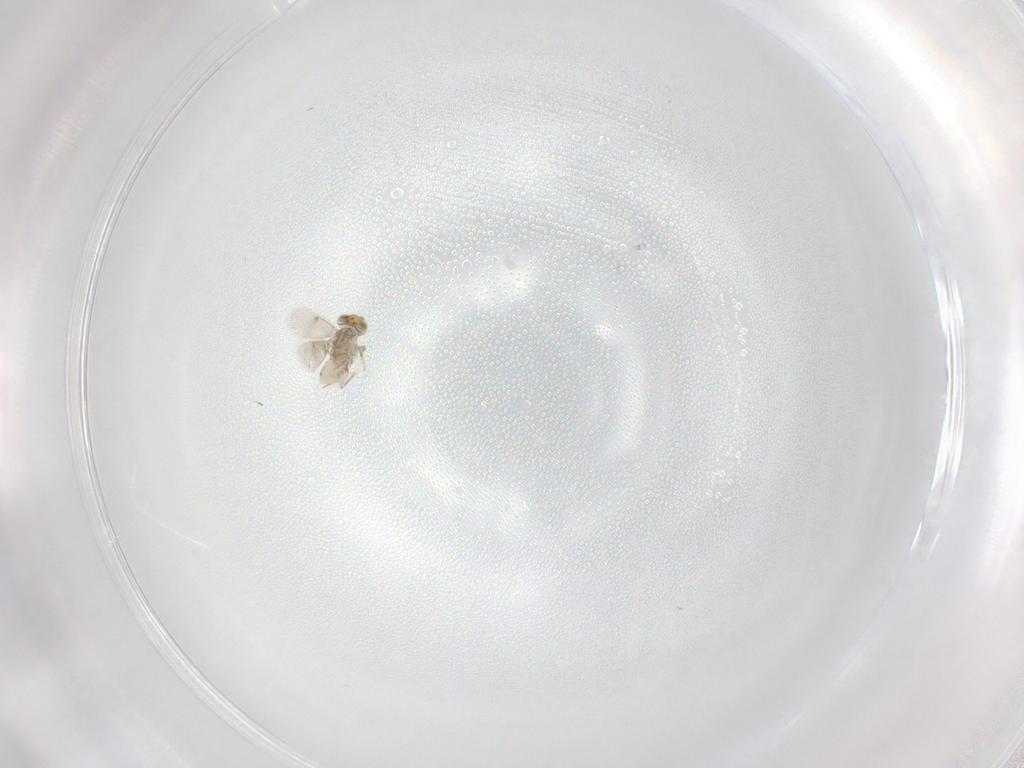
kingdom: Animalia
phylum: Arthropoda
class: Insecta
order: Hymenoptera
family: Aphelinidae
